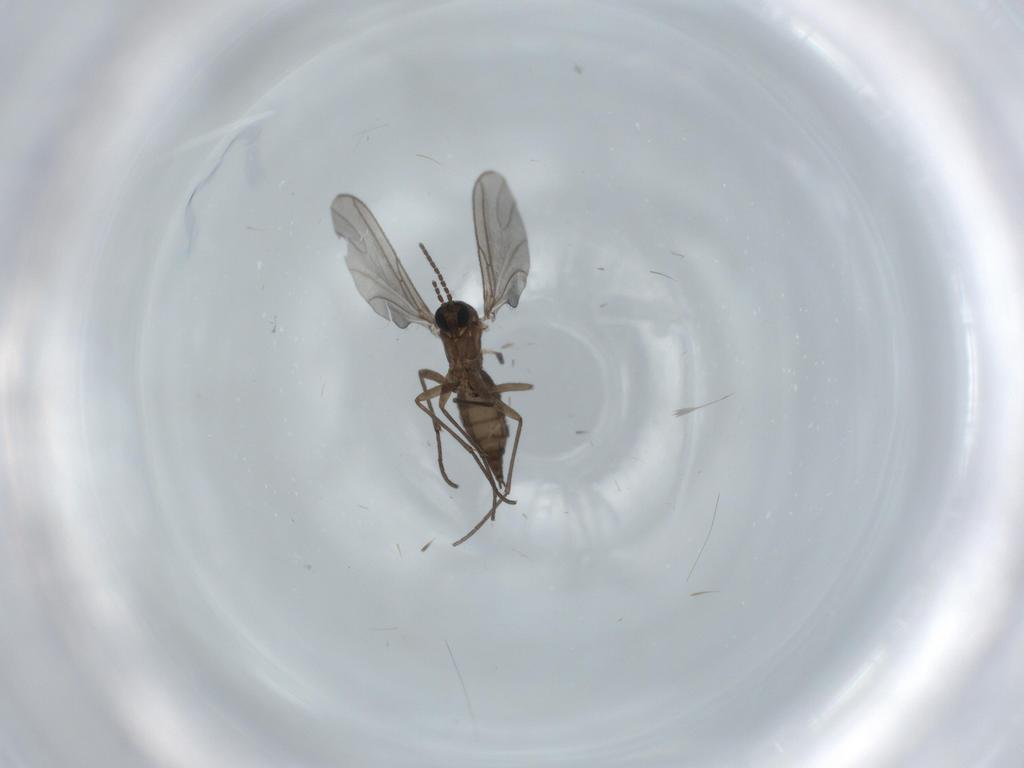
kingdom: Animalia
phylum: Arthropoda
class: Insecta
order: Diptera
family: Sciaridae
